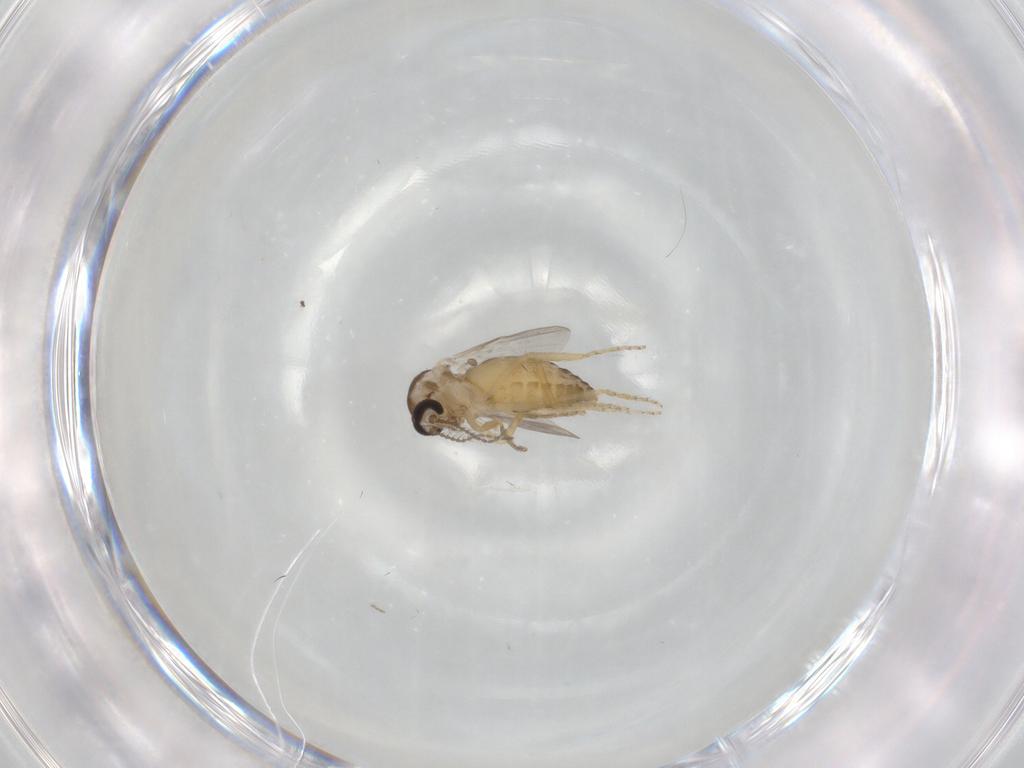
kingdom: Animalia
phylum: Arthropoda
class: Insecta
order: Diptera
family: Ceratopogonidae
